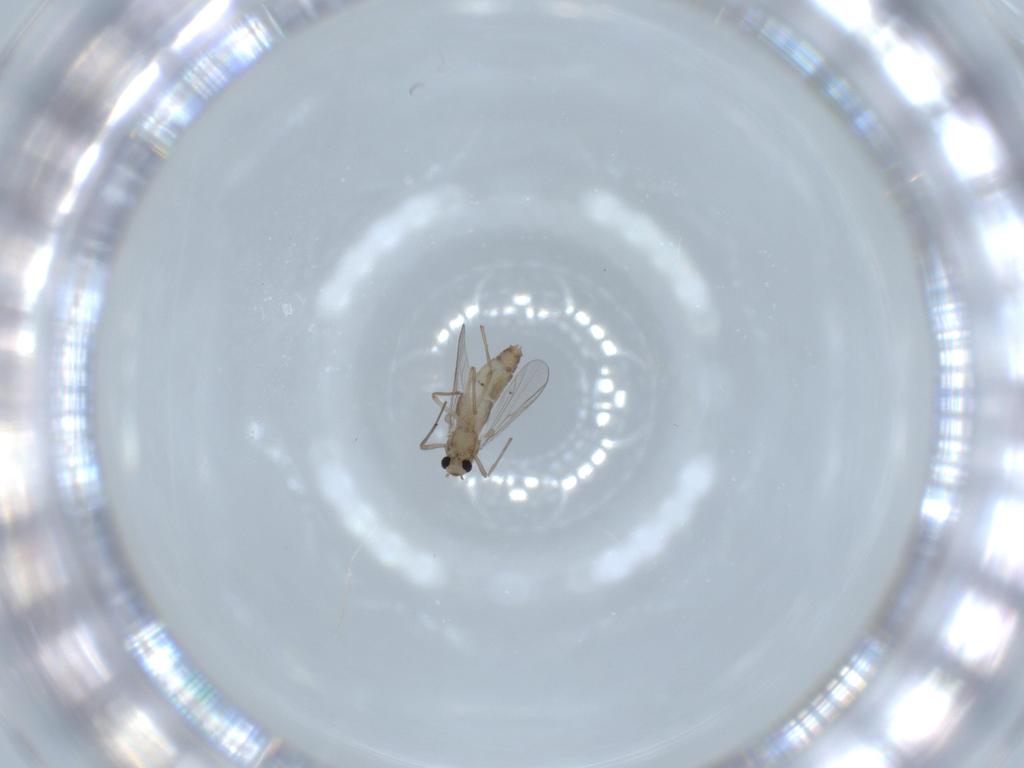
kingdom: Animalia
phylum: Arthropoda
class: Insecta
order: Diptera
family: Chironomidae
